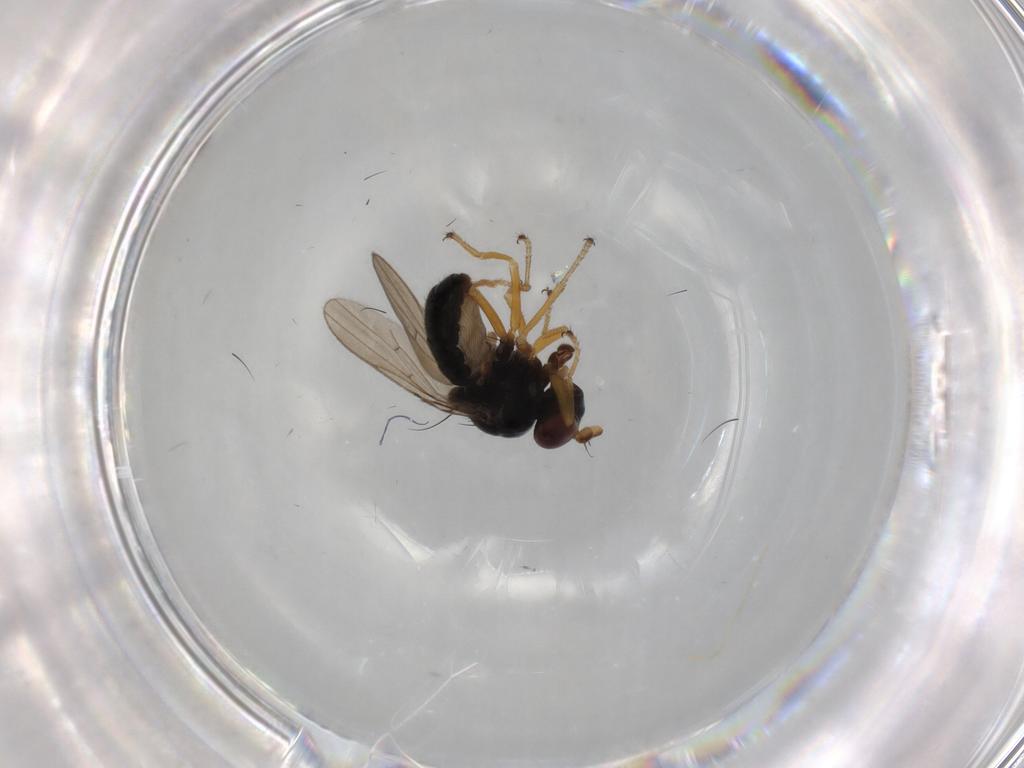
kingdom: Animalia
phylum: Arthropoda
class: Insecta
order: Diptera
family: Ephydridae
